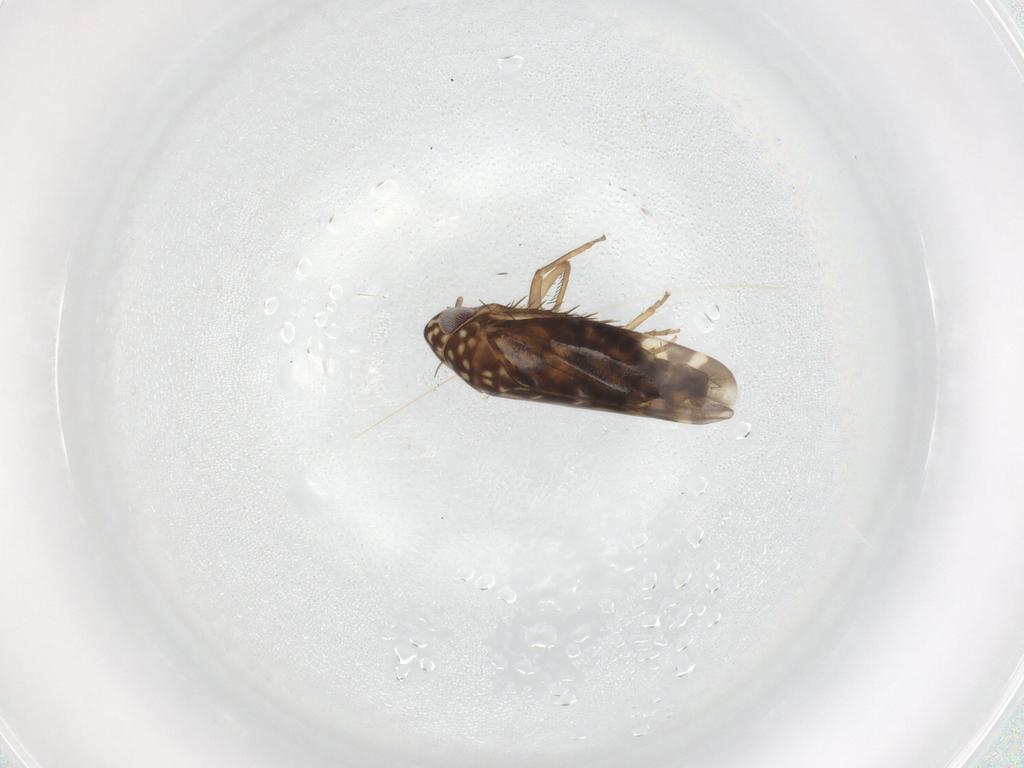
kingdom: Animalia
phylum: Arthropoda
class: Insecta
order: Hemiptera
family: Cicadellidae
